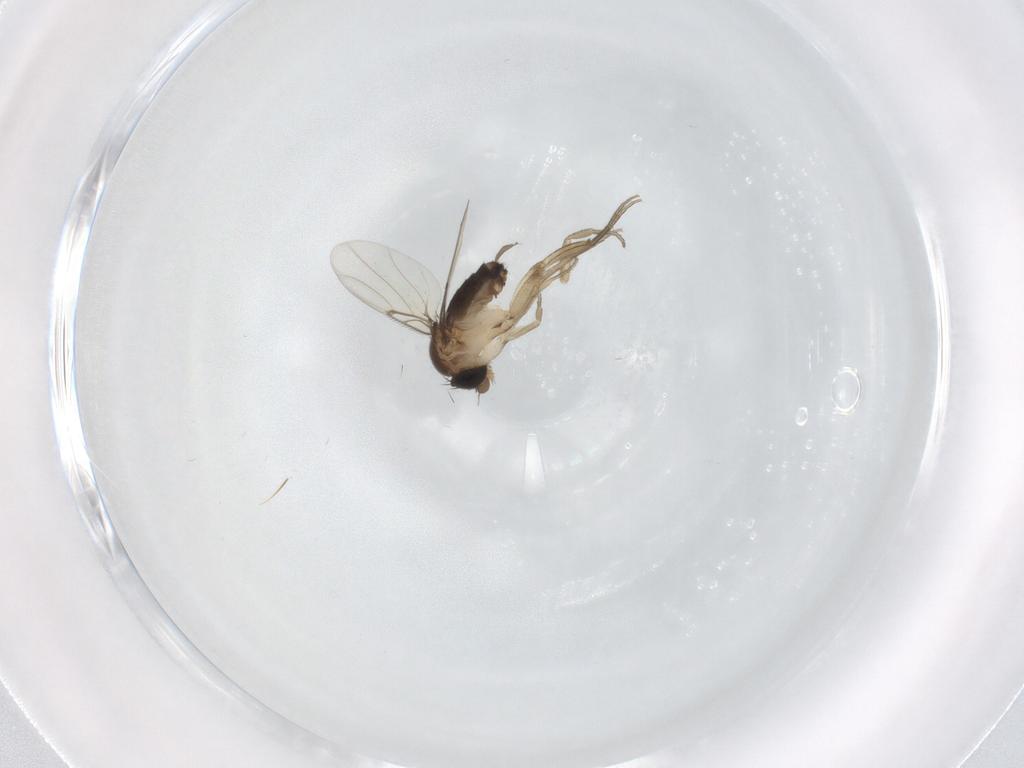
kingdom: Animalia
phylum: Arthropoda
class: Insecta
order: Diptera
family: Phoridae
